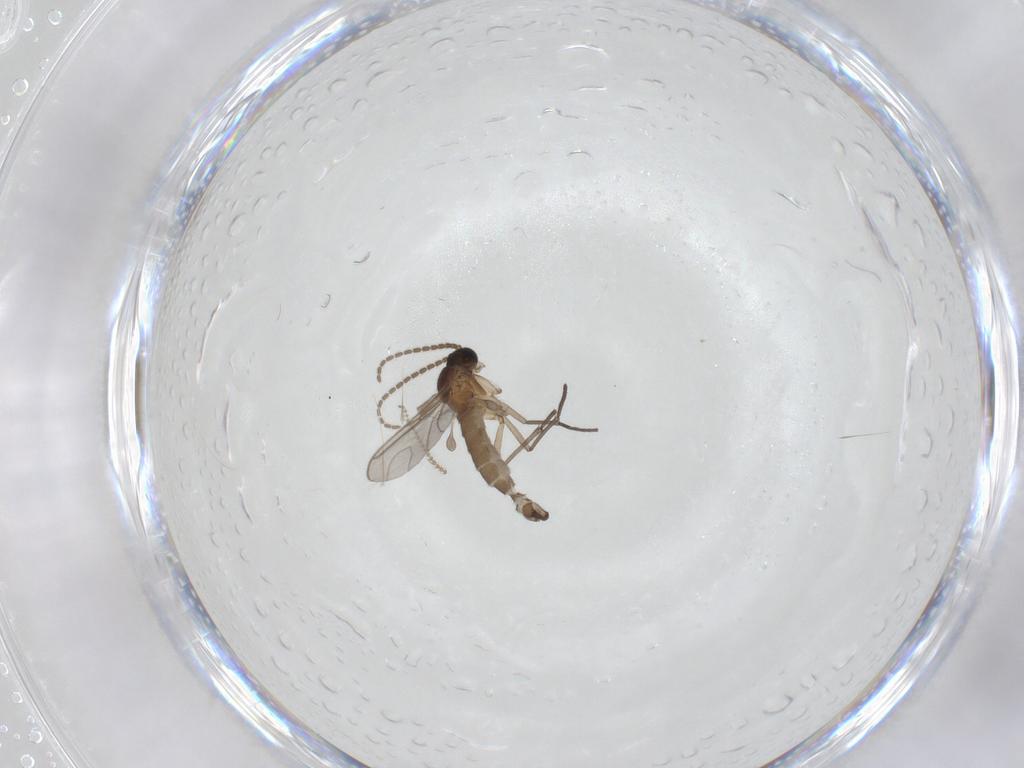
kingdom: Animalia
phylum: Arthropoda
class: Insecta
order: Diptera
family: Sciaridae
